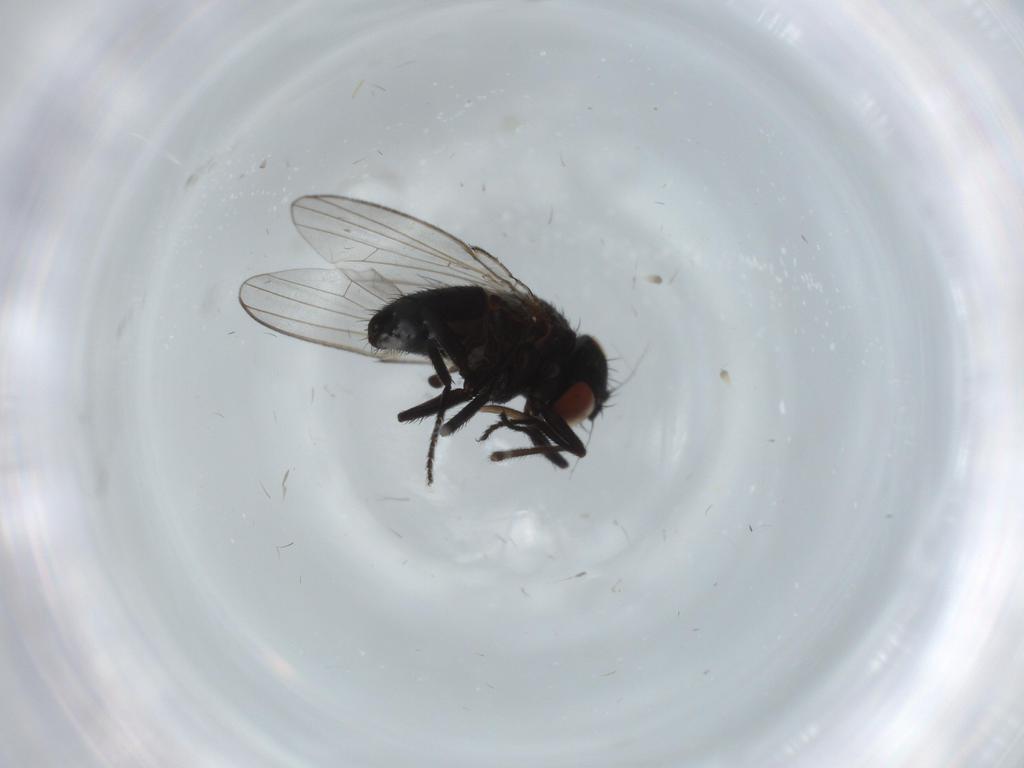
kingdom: Animalia
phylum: Arthropoda
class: Insecta
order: Diptera
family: Milichiidae
